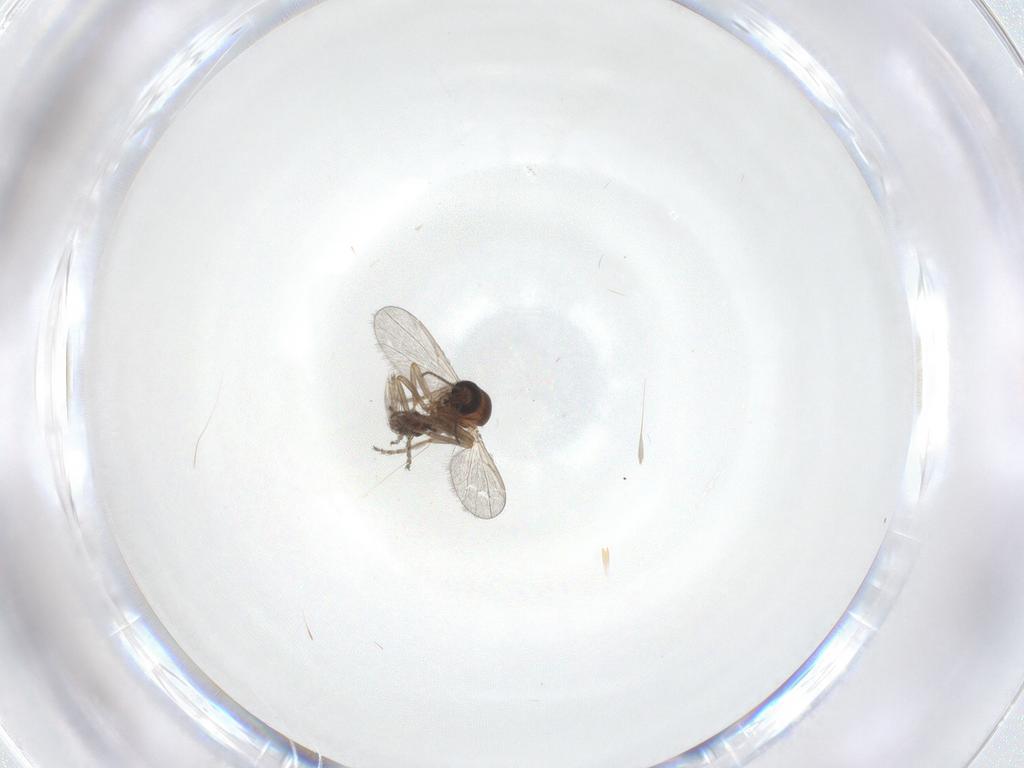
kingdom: Animalia
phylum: Arthropoda
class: Insecta
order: Diptera
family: Ceratopogonidae
